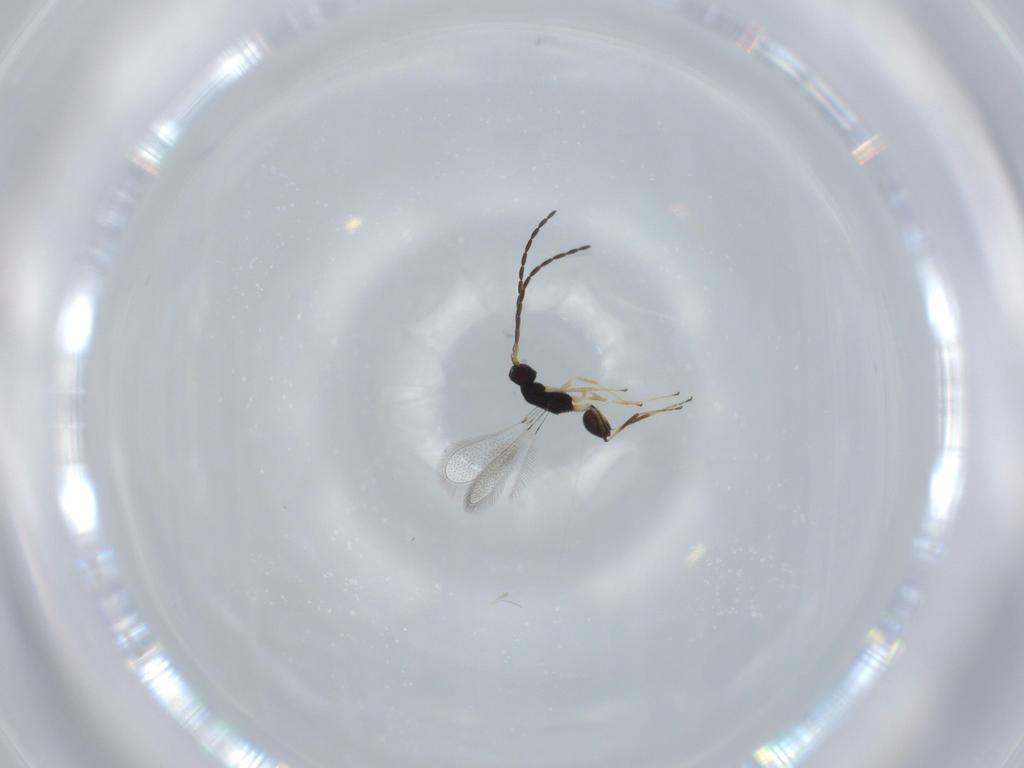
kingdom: Animalia
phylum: Arthropoda
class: Insecta
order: Hymenoptera
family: Mymaridae
